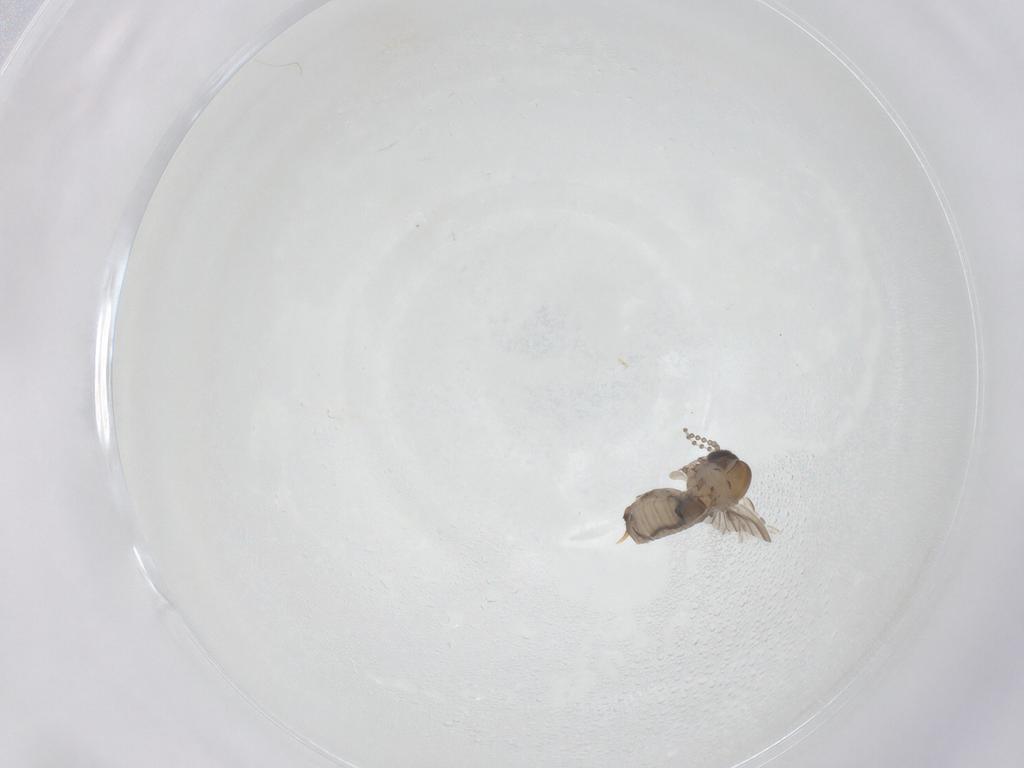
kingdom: Animalia
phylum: Arthropoda
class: Insecta
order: Diptera
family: Psychodidae
